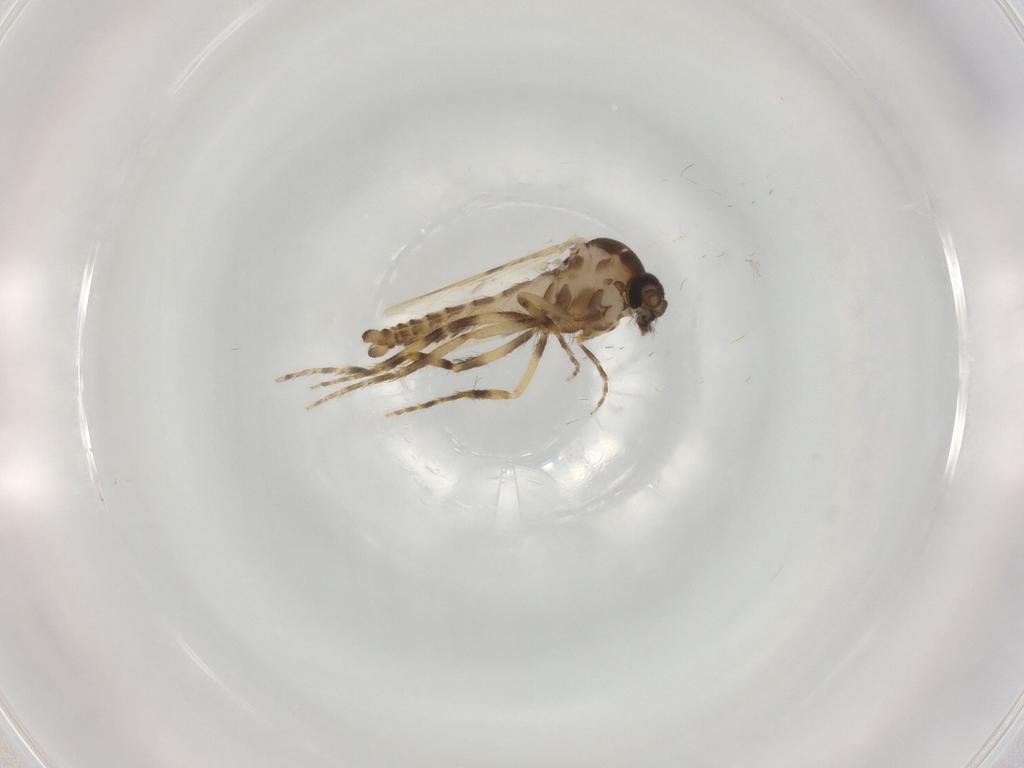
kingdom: Animalia
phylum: Arthropoda
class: Insecta
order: Diptera
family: Ceratopogonidae
